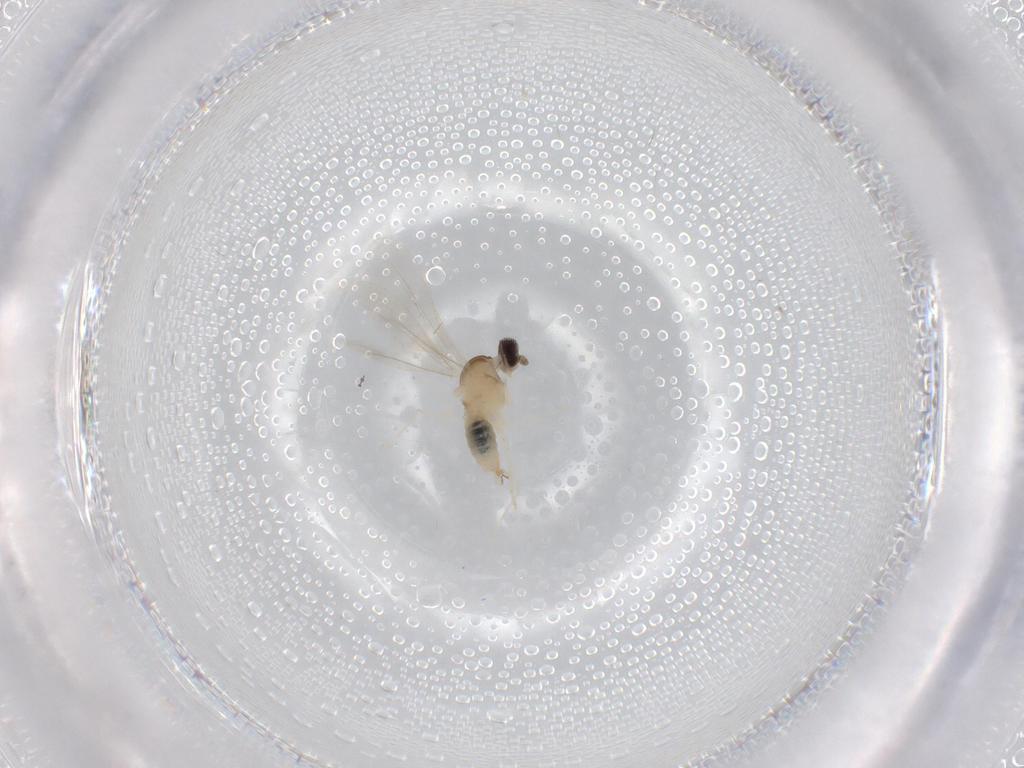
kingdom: Animalia
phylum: Arthropoda
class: Insecta
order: Diptera
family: Cecidomyiidae
